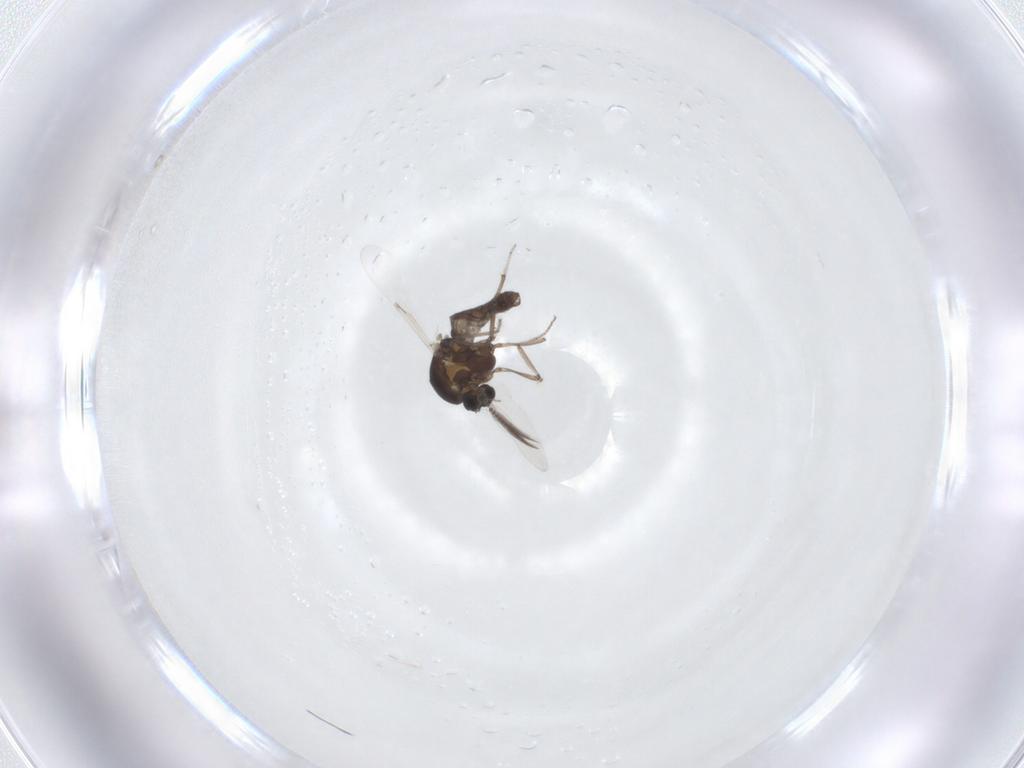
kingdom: Animalia
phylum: Arthropoda
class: Insecta
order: Diptera
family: Ceratopogonidae
